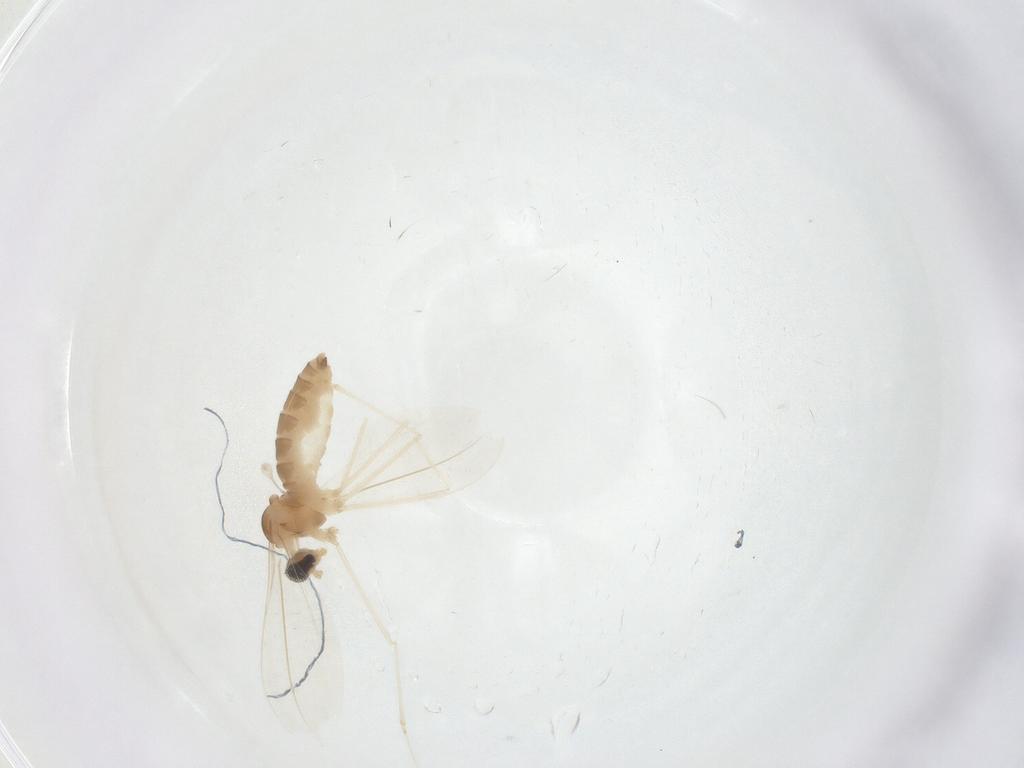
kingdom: Animalia
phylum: Arthropoda
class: Insecta
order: Diptera
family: Cecidomyiidae
